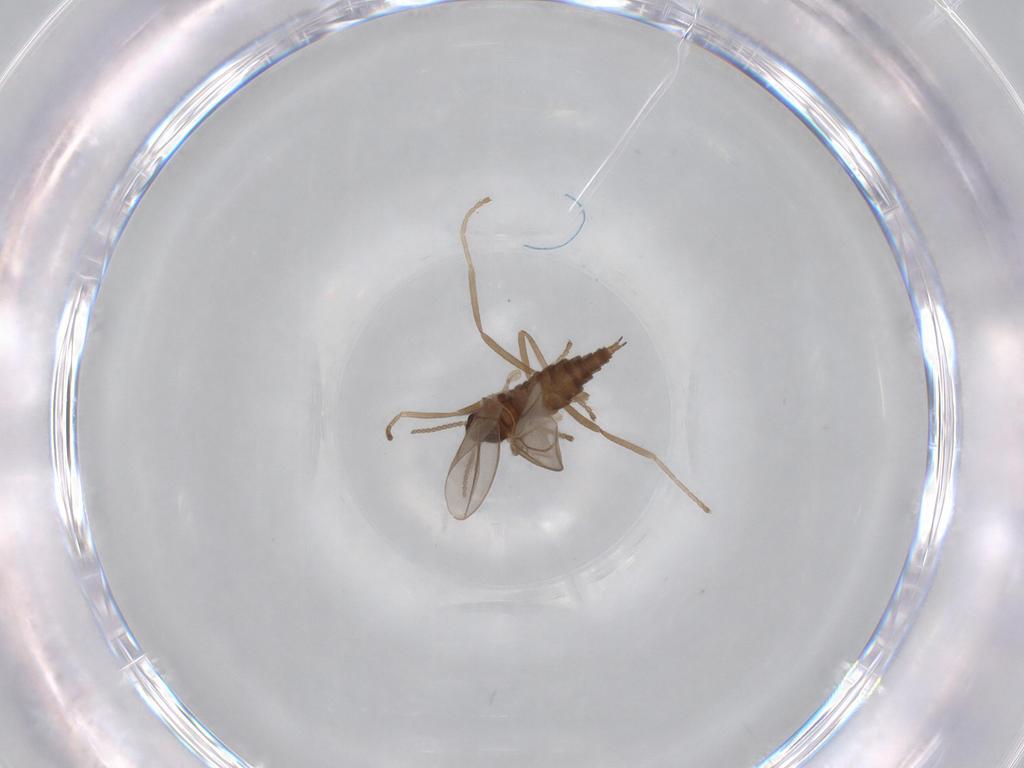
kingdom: Animalia
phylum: Arthropoda
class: Insecta
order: Diptera
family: Cecidomyiidae
